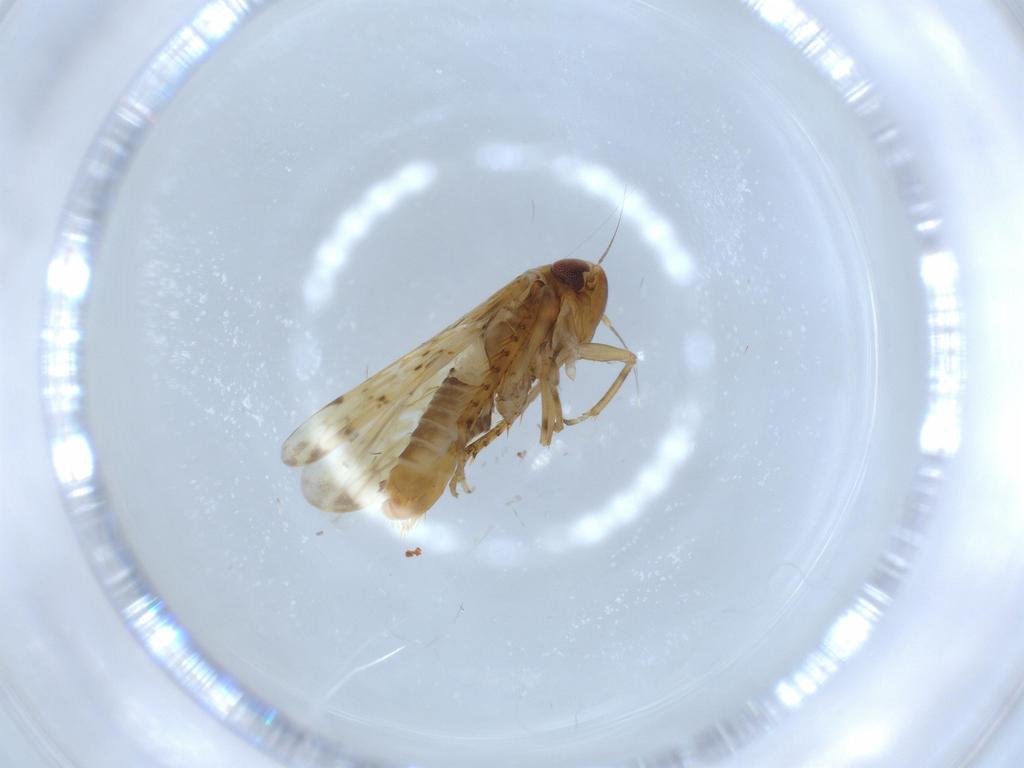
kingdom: Animalia
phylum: Arthropoda
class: Insecta
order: Hemiptera
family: Cicadellidae
